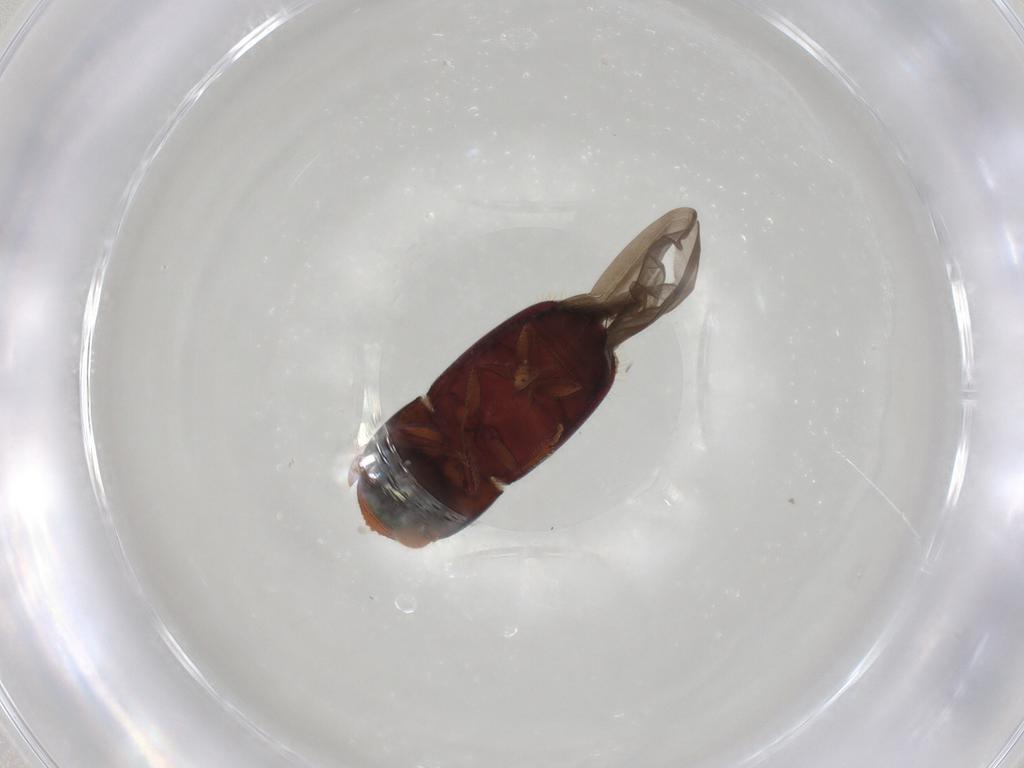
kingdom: Animalia
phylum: Arthropoda
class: Insecta
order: Coleoptera
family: Curculionidae
